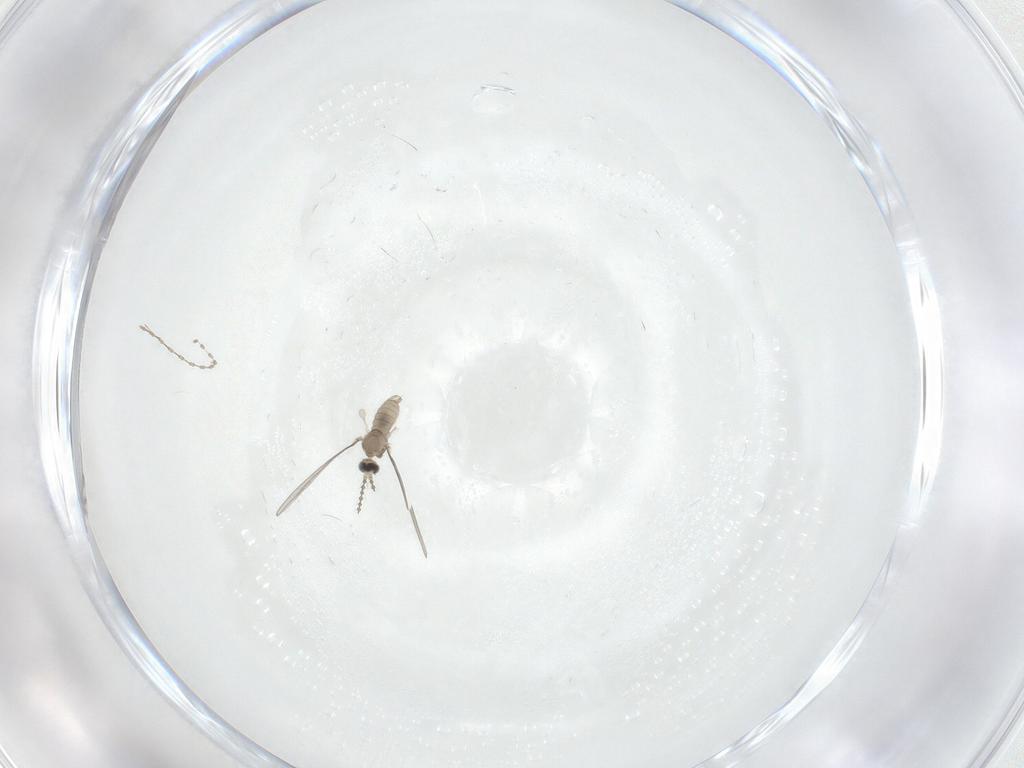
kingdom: Animalia
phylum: Arthropoda
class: Insecta
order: Diptera
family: Cecidomyiidae
